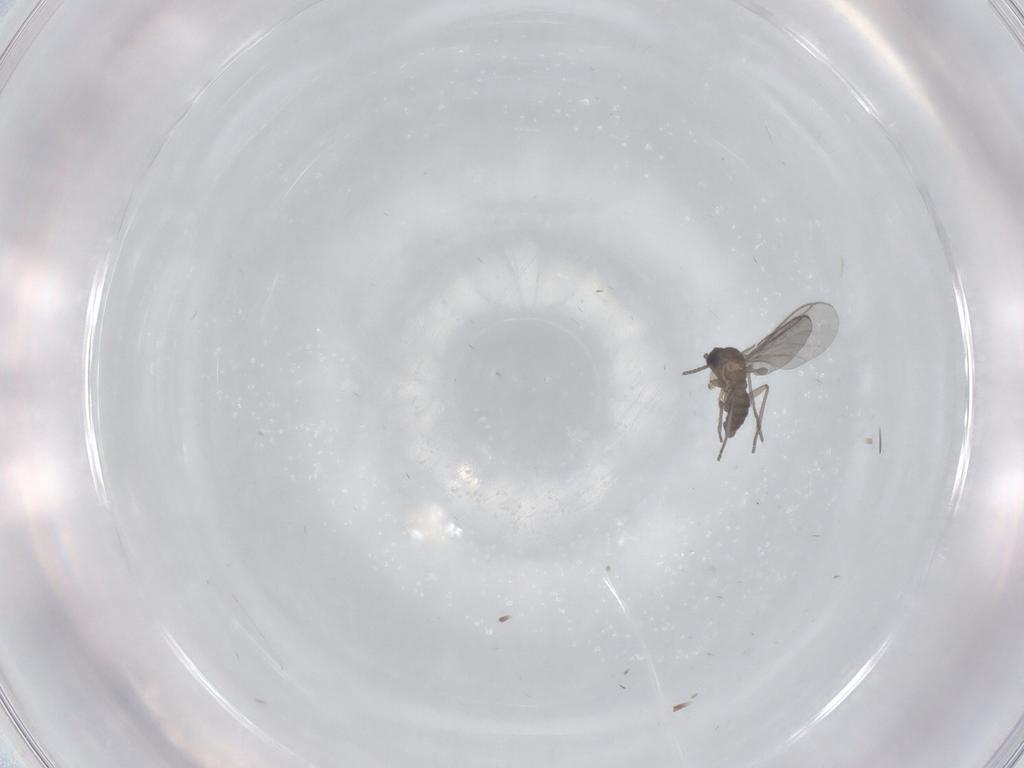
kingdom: Animalia
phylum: Arthropoda
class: Insecta
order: Diptera
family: Sciaridae
